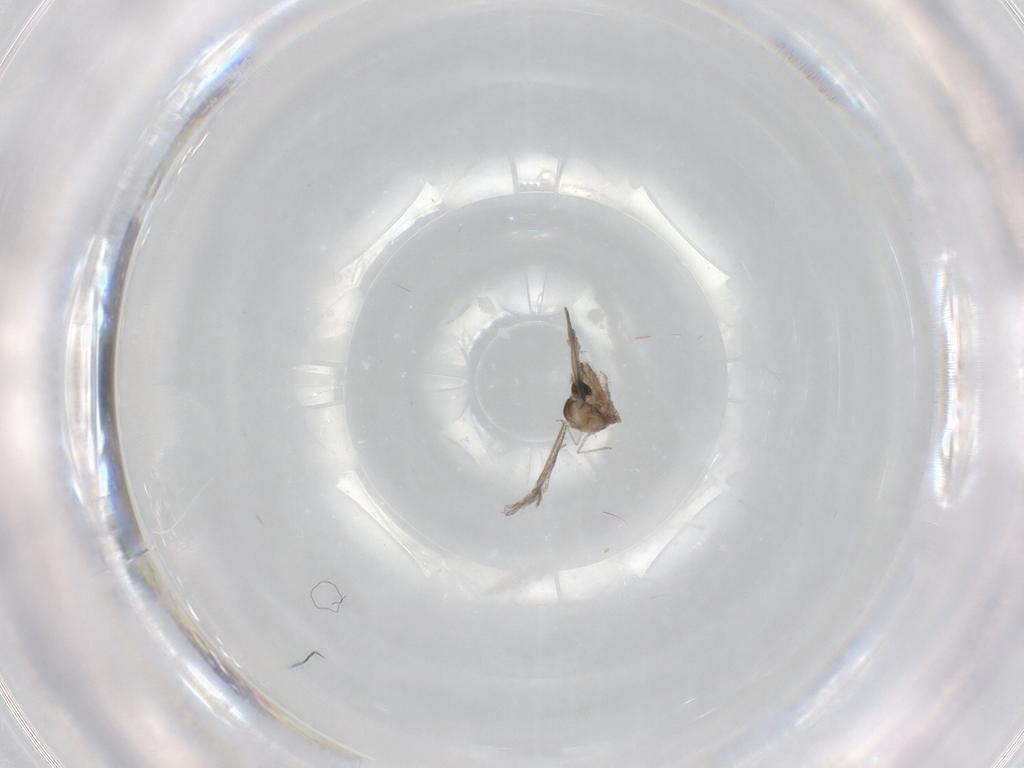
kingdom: Animalia
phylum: Arthropoda
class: Insecta
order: Diptera
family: Cecidomyiidae
